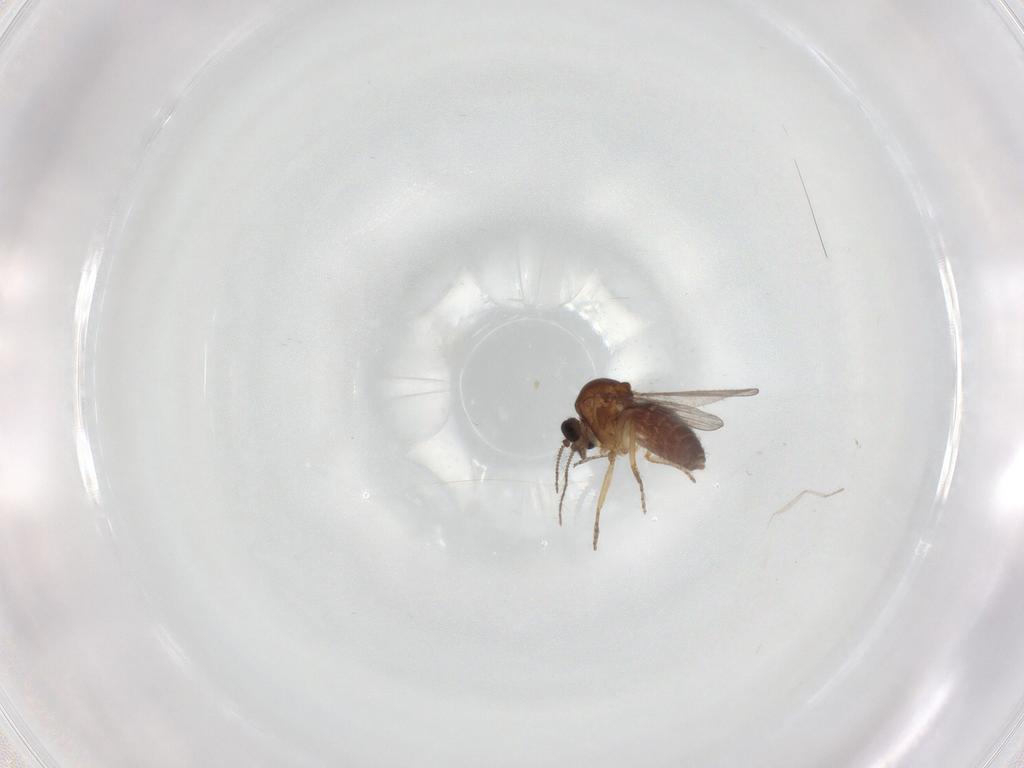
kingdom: Animalia
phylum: Arthropoda
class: Insecta
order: Diptera
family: Ceratopogonidae
